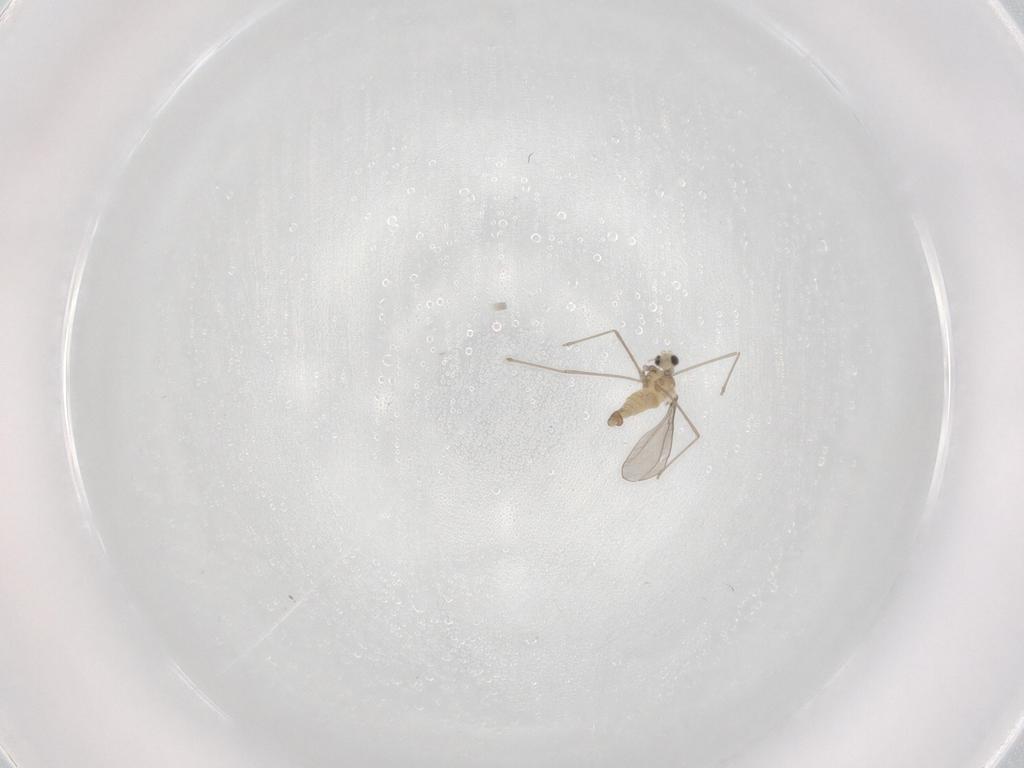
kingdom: Animalia
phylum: Arthropoda
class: Insecta
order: Diptera
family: Cecidomyiidae
